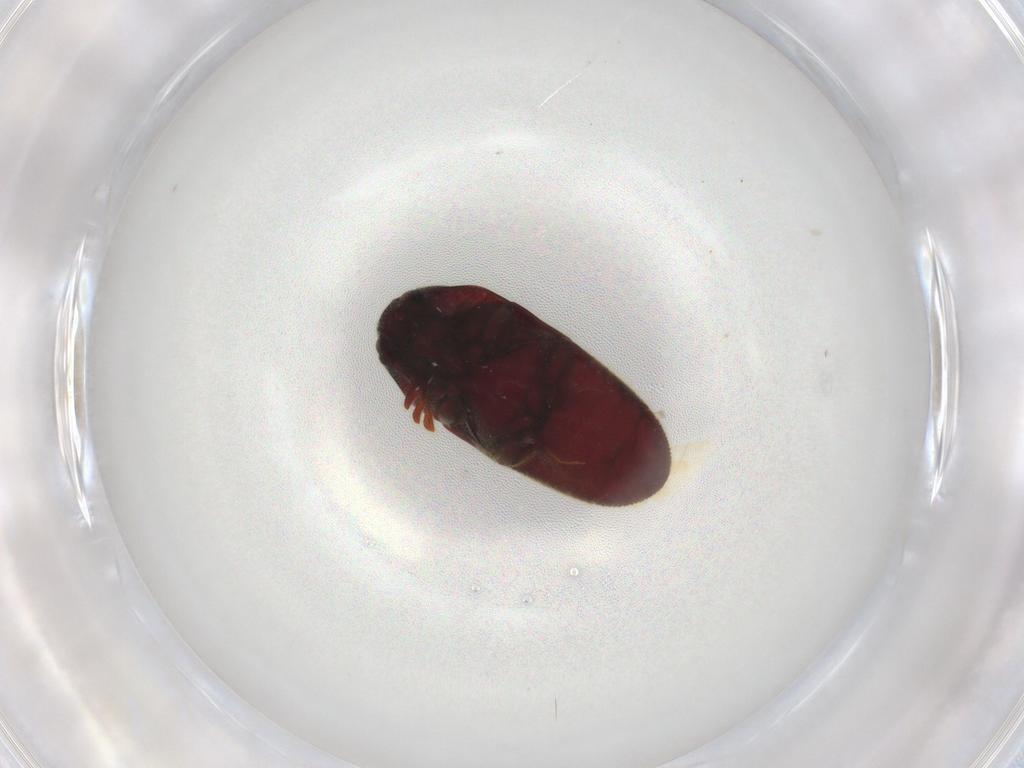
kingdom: Animalia
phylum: Arthropoda
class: Insecta
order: Coleoptera
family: Throscidae
